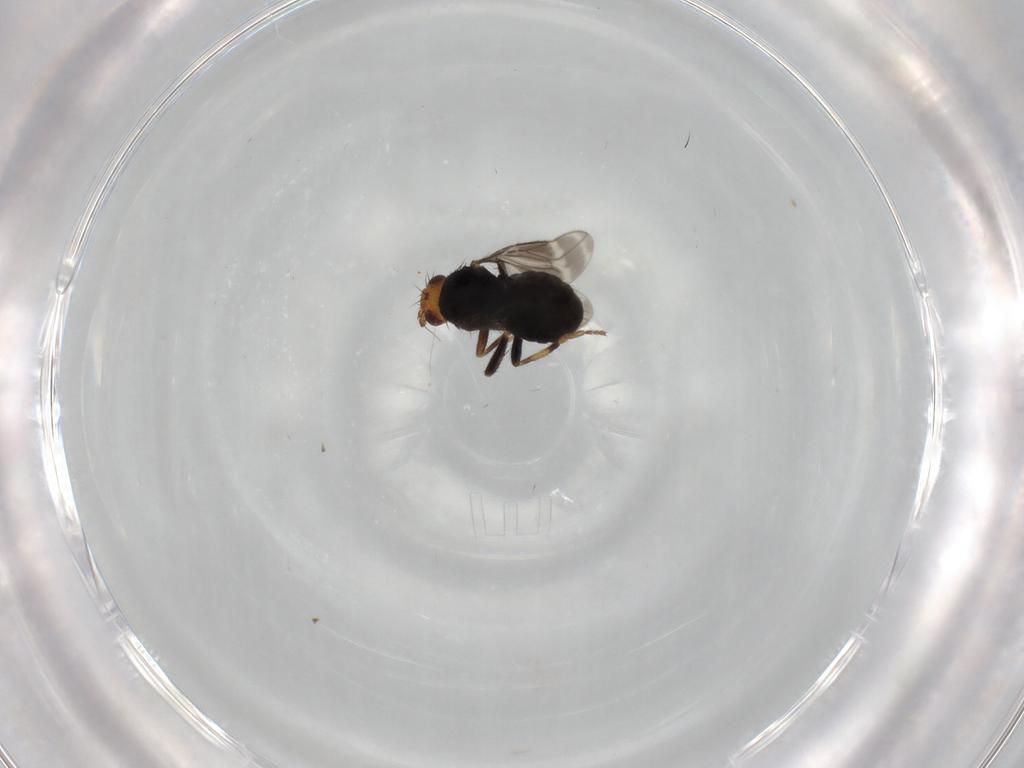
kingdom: Animalia
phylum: Arthropoda
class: Insecta
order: Diptera
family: Sphaeroceridae
